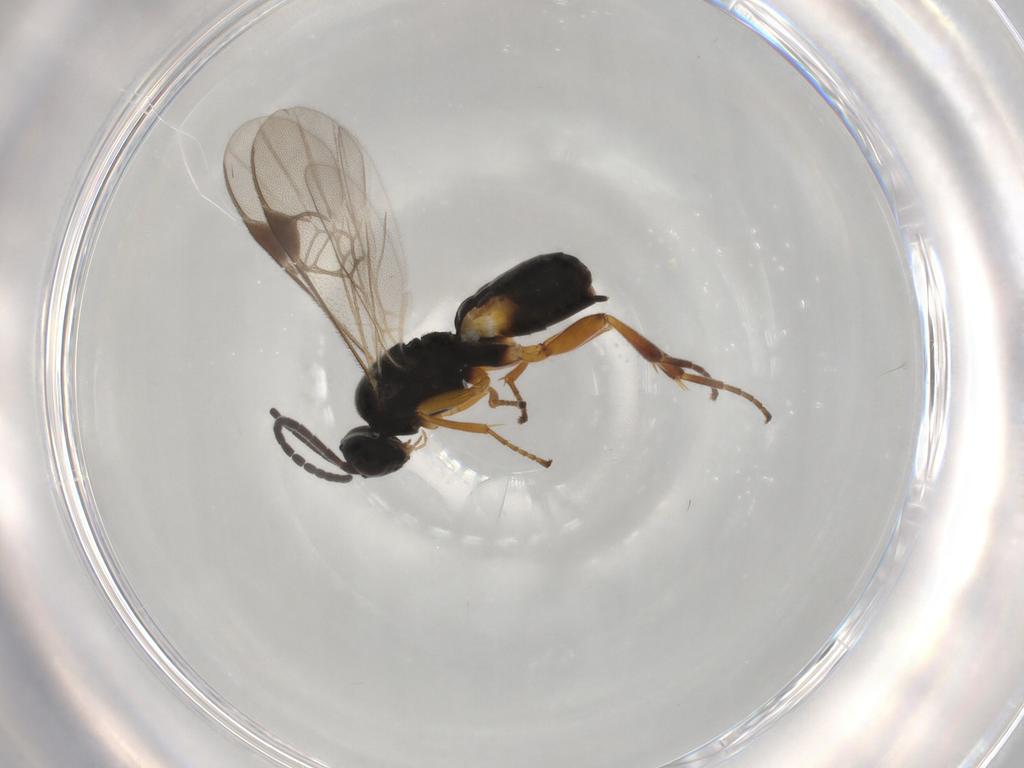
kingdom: Animalia
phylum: Arthropoda
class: Insecta
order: Hymenoptera
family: Braconidae
